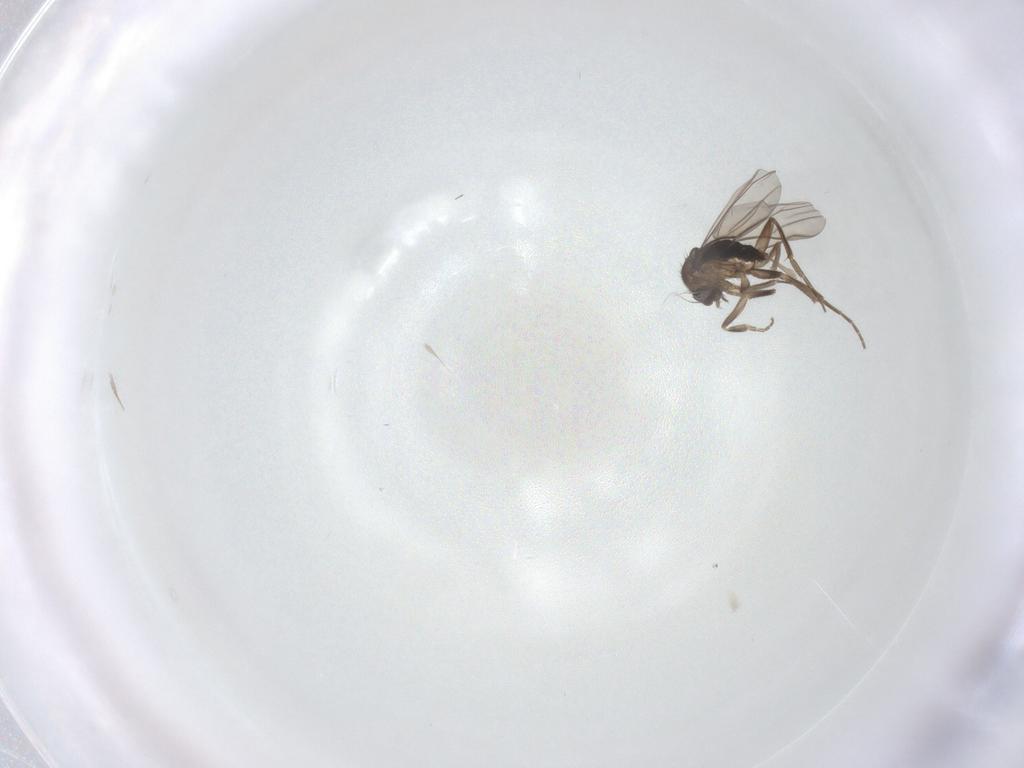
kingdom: Animalia
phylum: Arthropoda
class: Insecta
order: Diptera
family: Phoridae
